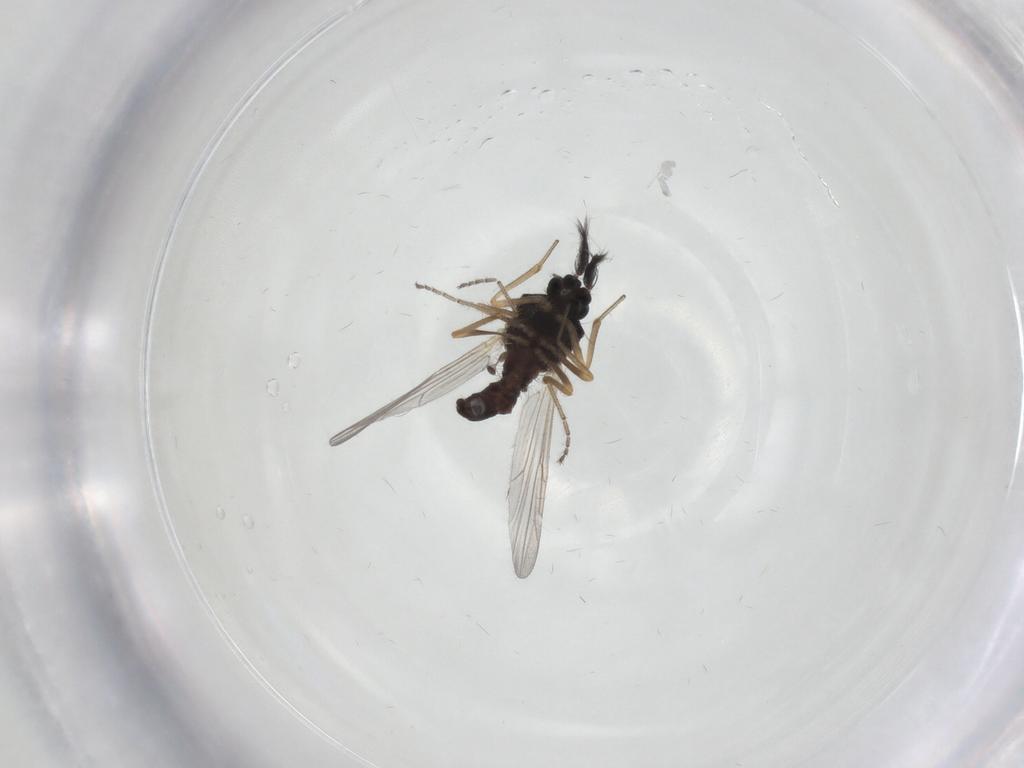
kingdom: Animalia
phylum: Arthropoda
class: Insecta
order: Diptera
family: Ceratopogonidae
